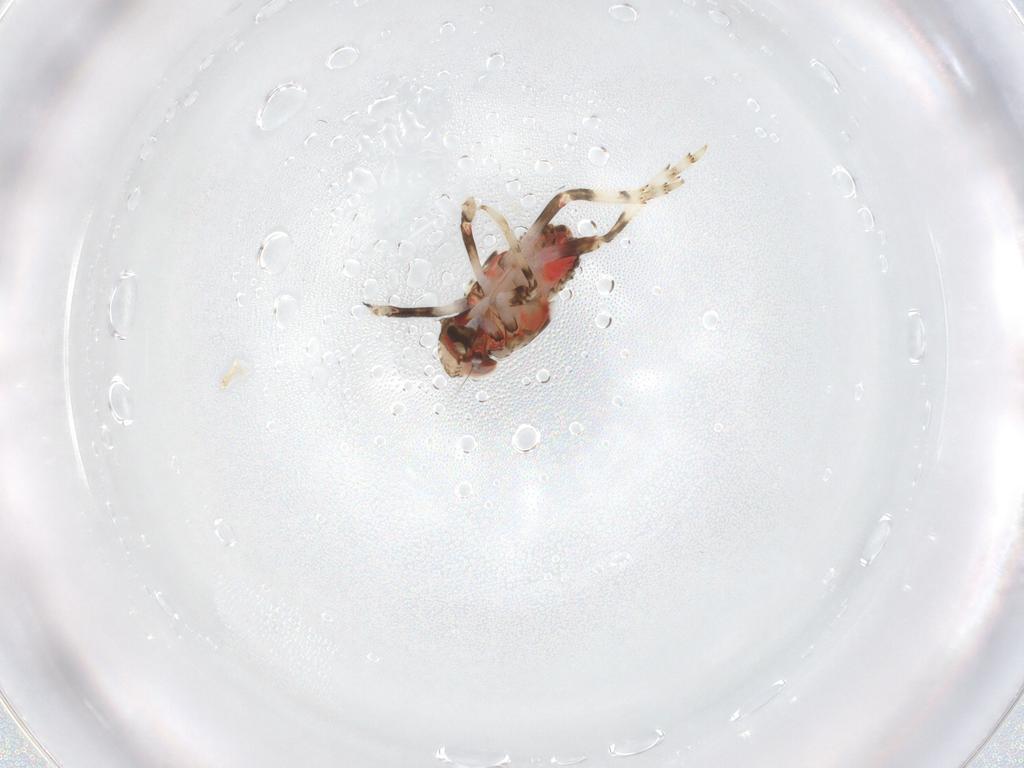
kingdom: Animalia
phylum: Arthropoda
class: Insecta
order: Hemiptera
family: Issidae
